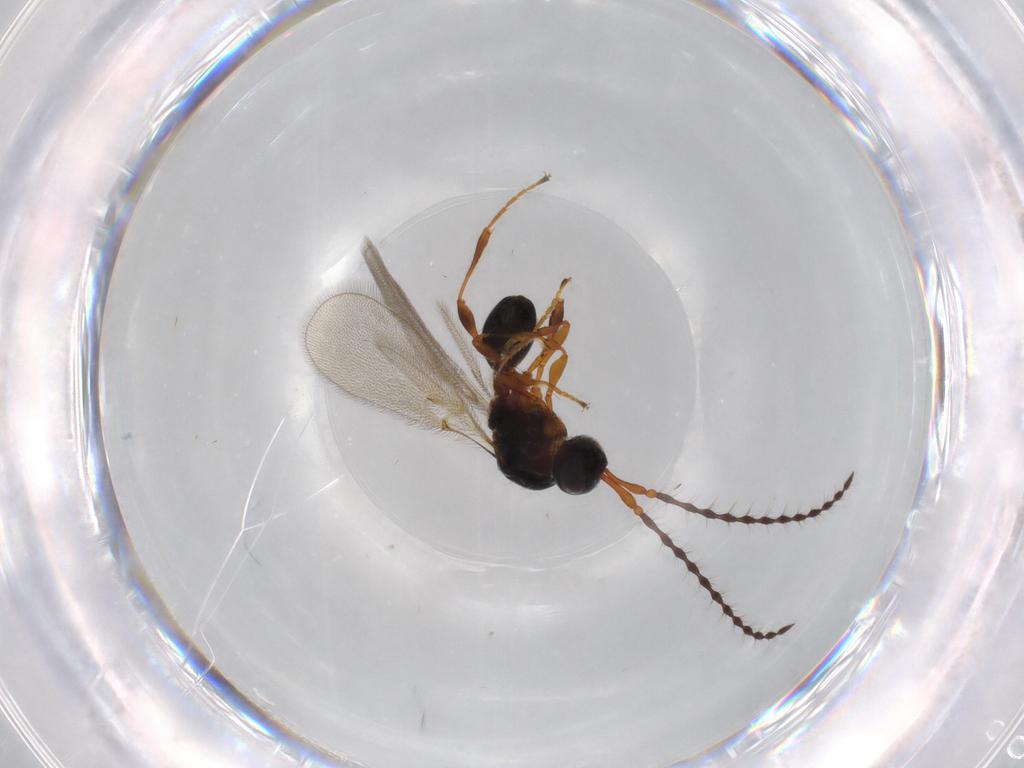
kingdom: Animalia
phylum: Arthropoda
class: Insecta
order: Hymenoptera
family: Diapriidae
